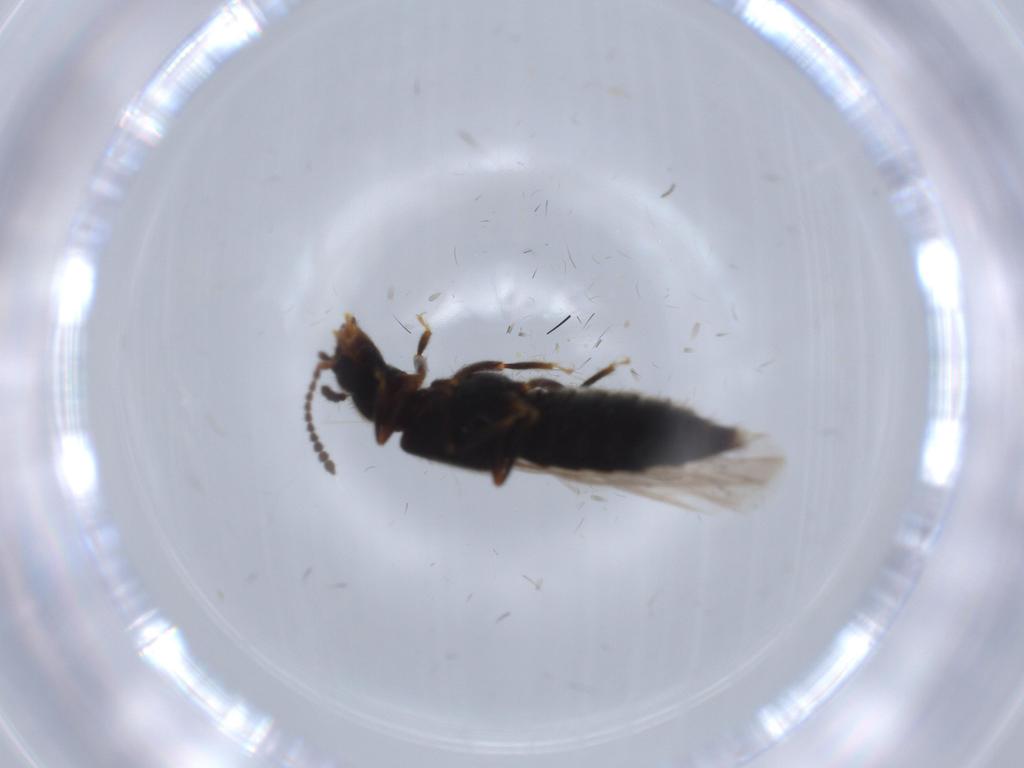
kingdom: Animalia
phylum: Arthropoda
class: Insecta
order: Coleoptera
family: Staphylinidae
